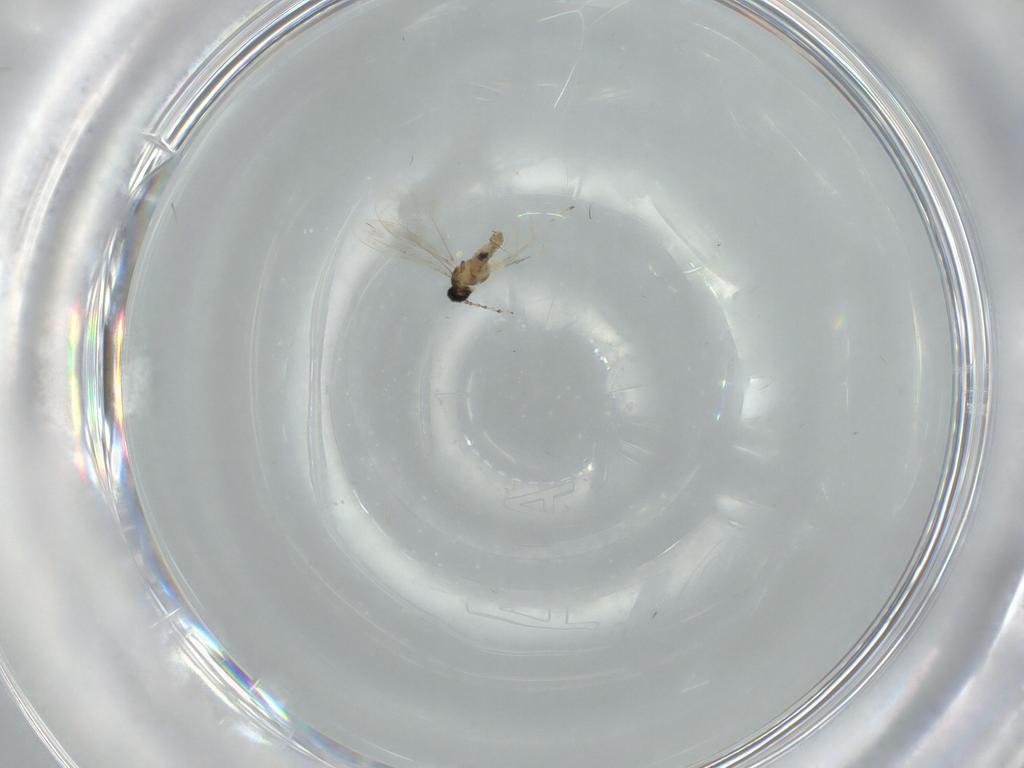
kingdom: Animalia
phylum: Arthropoda
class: Insecta
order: Diptera
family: Cecidomyiidae
